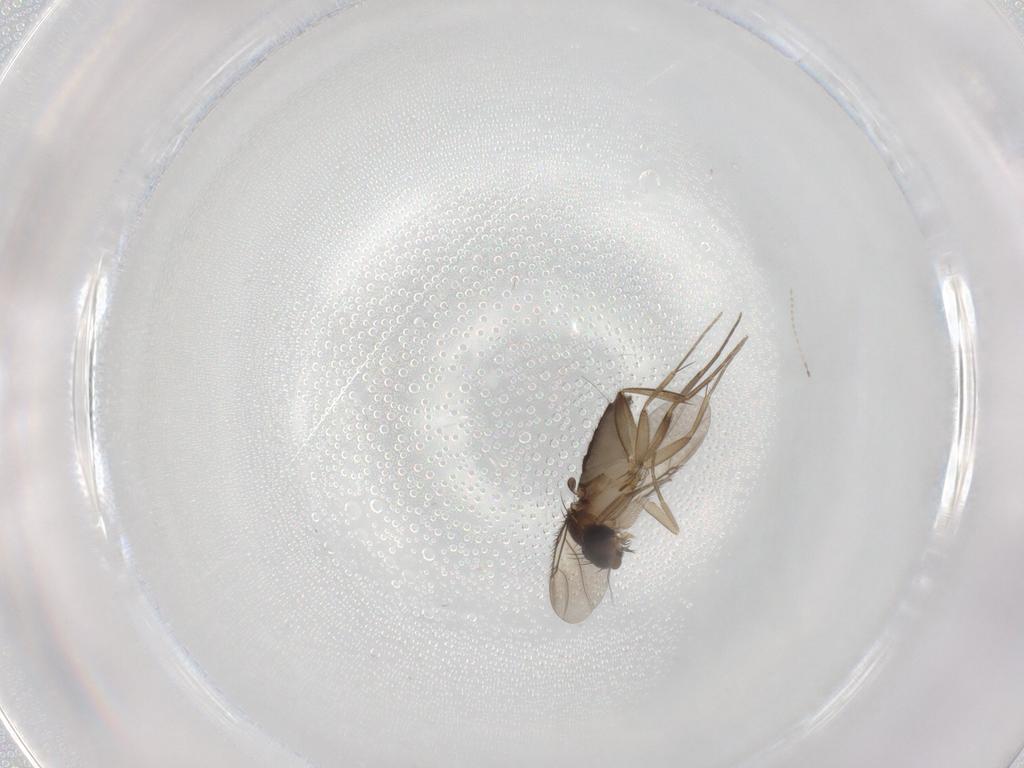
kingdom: Animalia
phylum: Arthropoda
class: Insecta
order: Diptera
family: Phoridae
